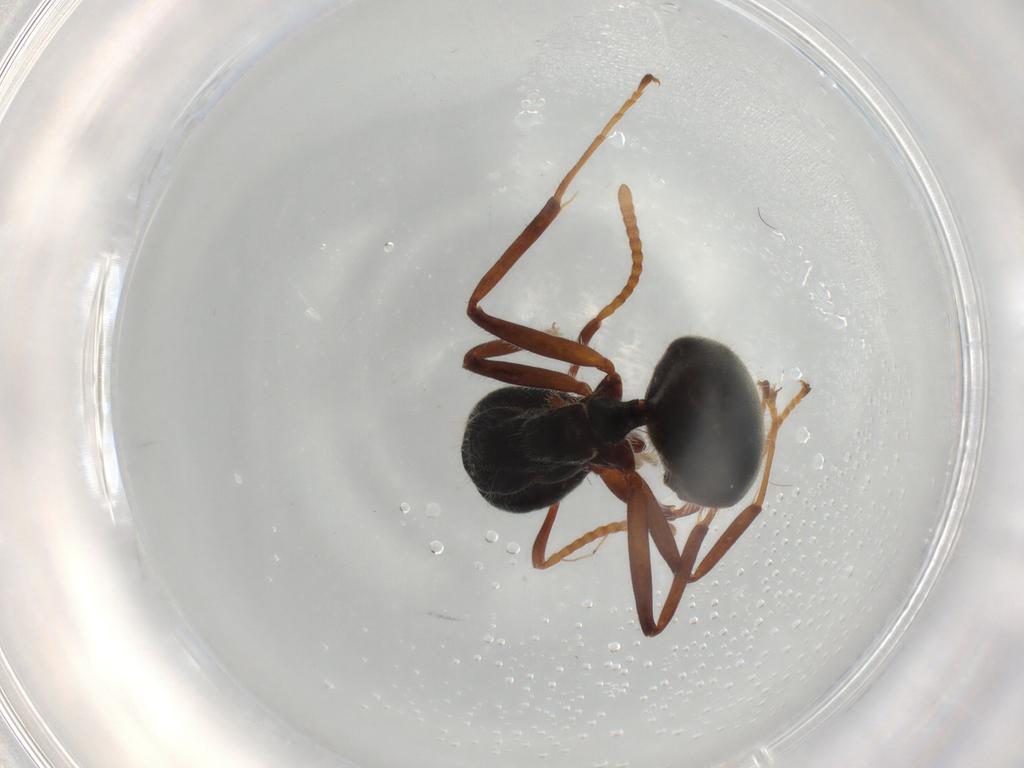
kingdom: Animalia
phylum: Arthropoda
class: Insecta
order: Hymenoptera
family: Formicidae
